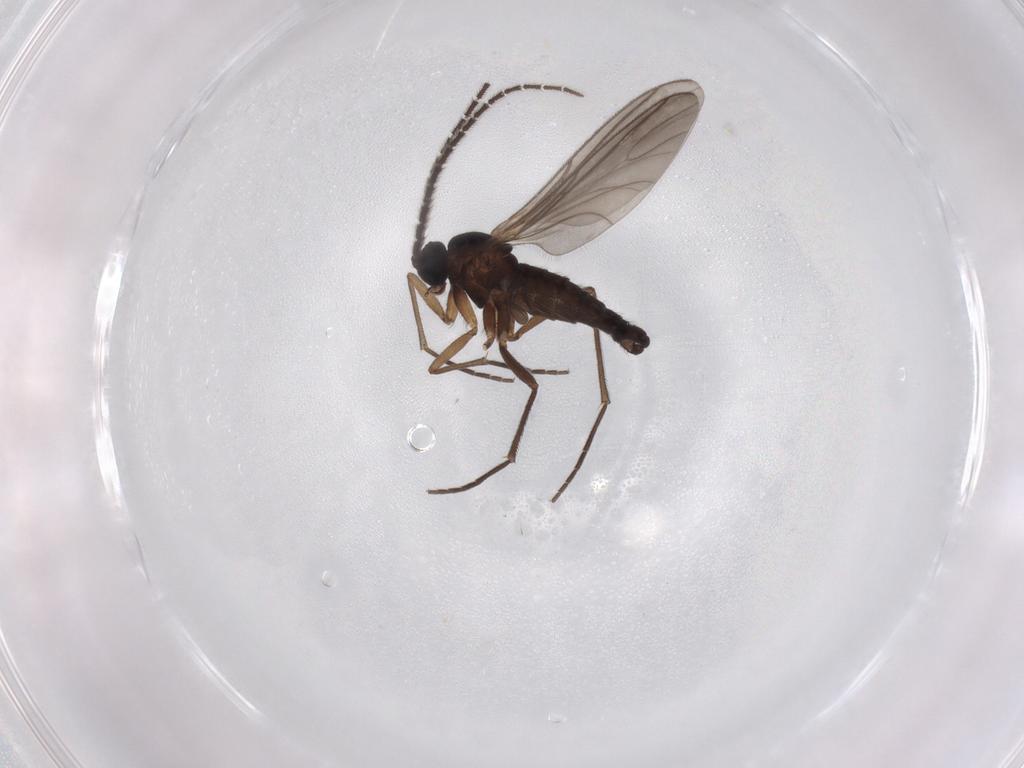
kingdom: Animalia
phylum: Arthropoda
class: Insecta
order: Diptera
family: Sciaridae
